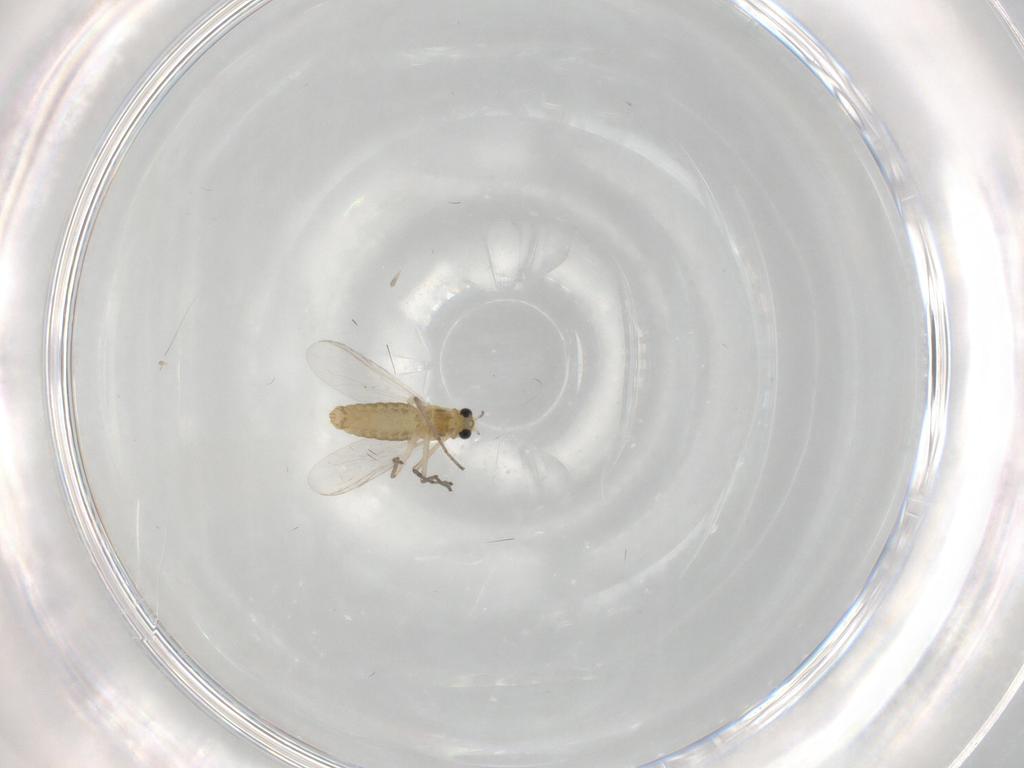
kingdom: Animalia
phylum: Arthropoda
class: Insecta
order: Diptera
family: Chironomidae
